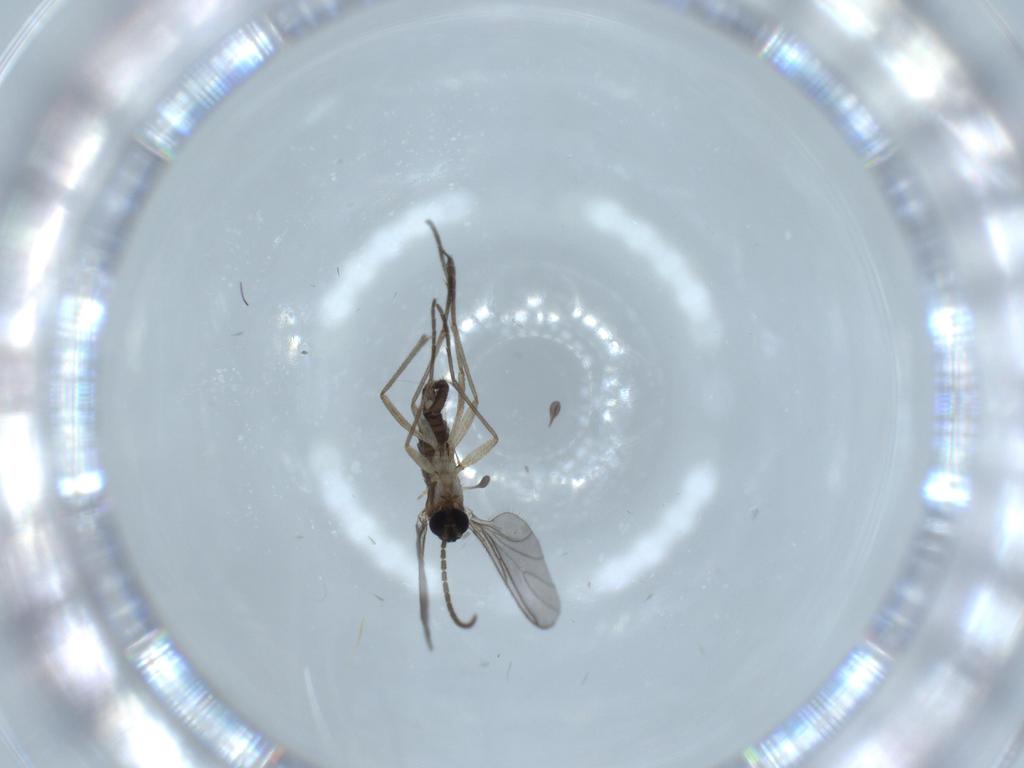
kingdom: Animalia
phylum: Arthropoda
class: Insecta
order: Diptera
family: Sciaridae
